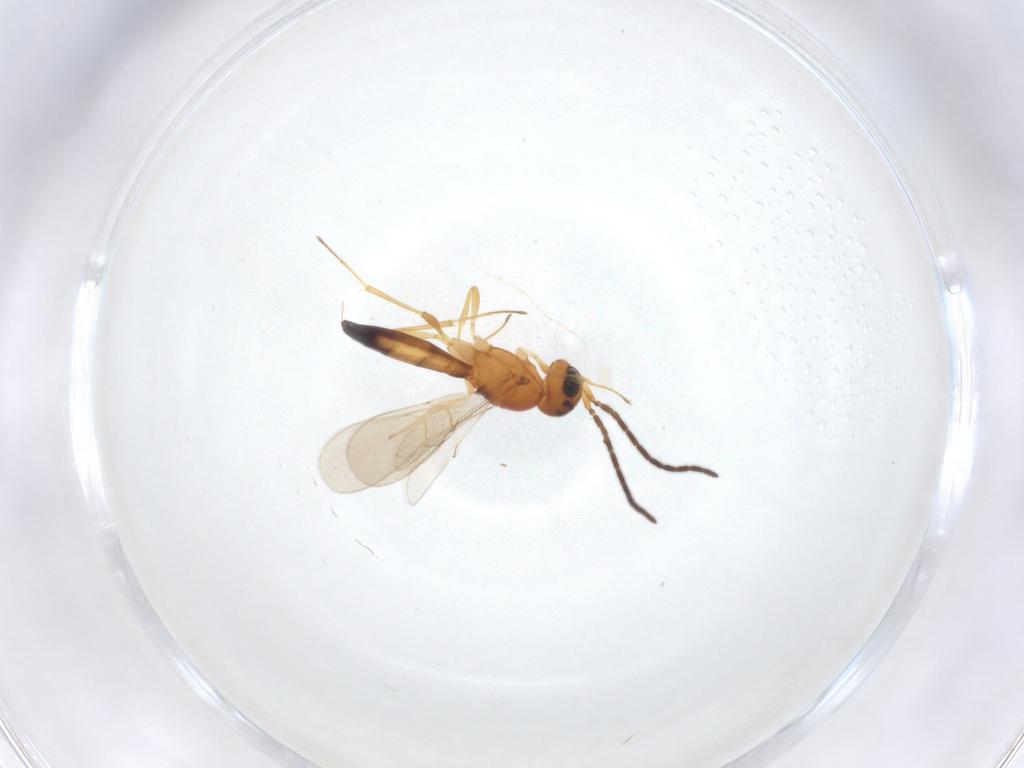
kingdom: Animalia
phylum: Arthropoda
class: Insecta
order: Hymenoptera
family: Scelionidae
